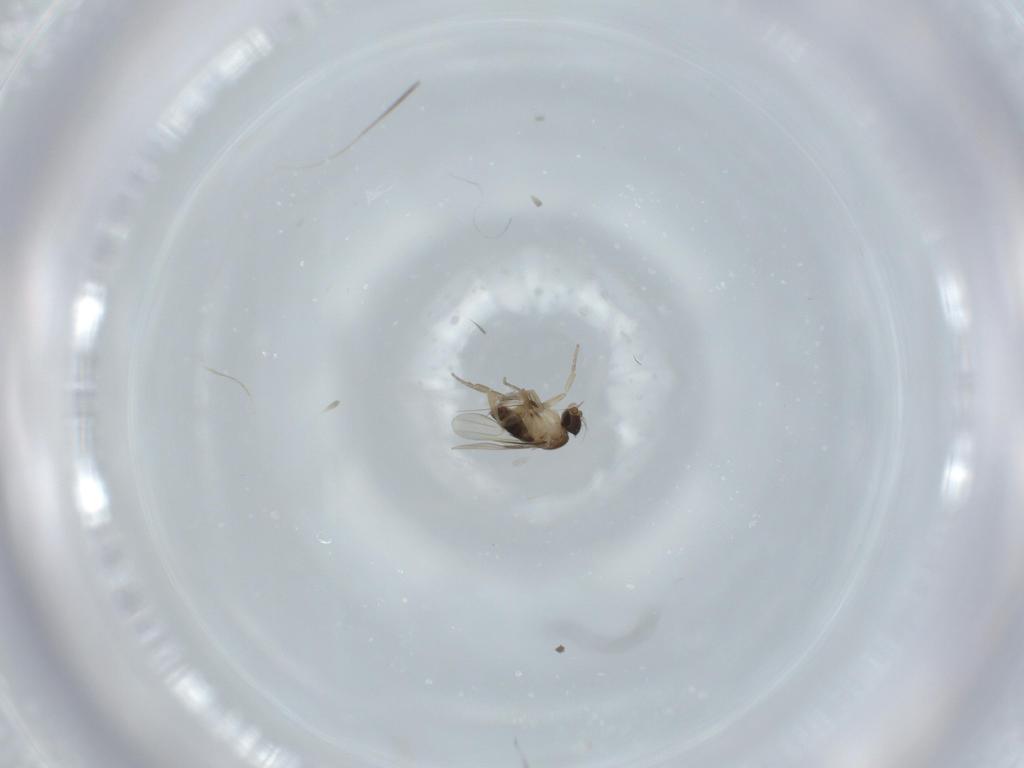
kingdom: Animalia
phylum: Arthropoda
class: Insecta
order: Diptera
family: Phoridae
